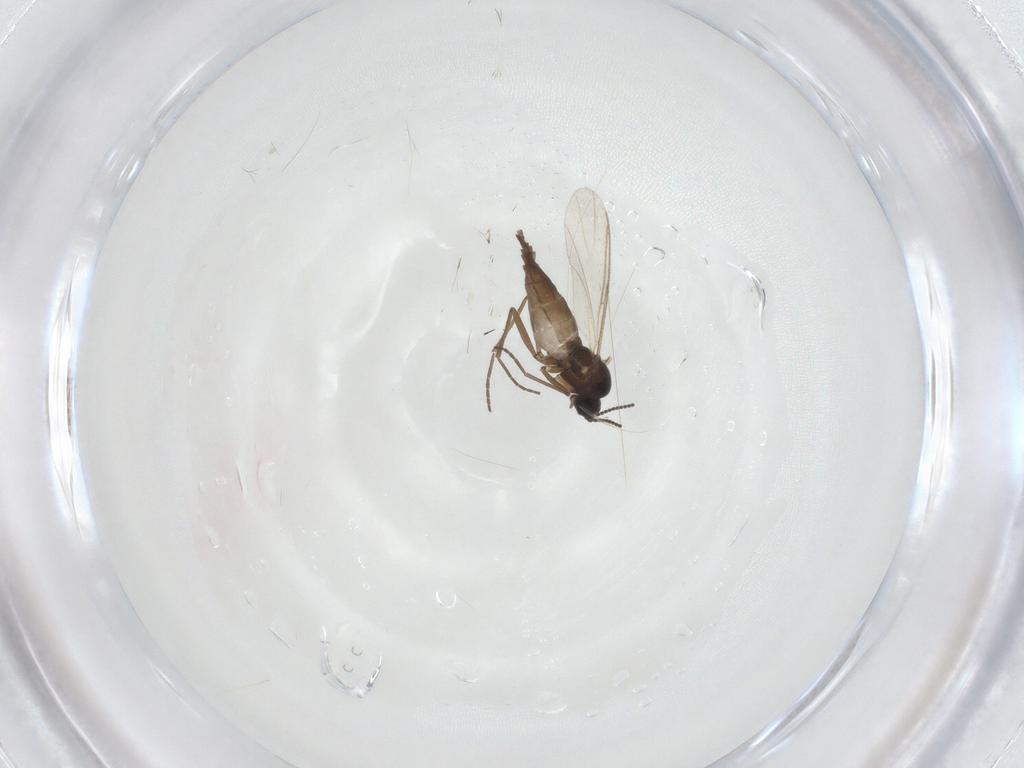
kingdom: Animalia
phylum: Arthropoda
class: Insecta
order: Diptera
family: Sciaridae
